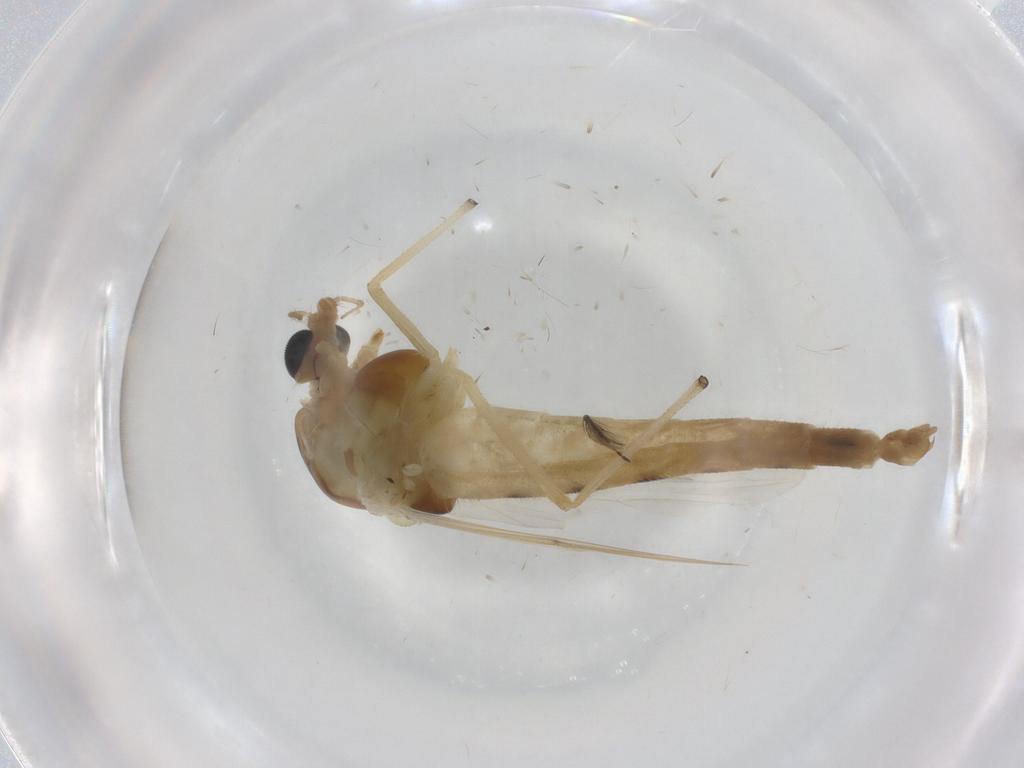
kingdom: Animalia
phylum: Arthropoda
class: Insecta
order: Diptera
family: Chironomidae
